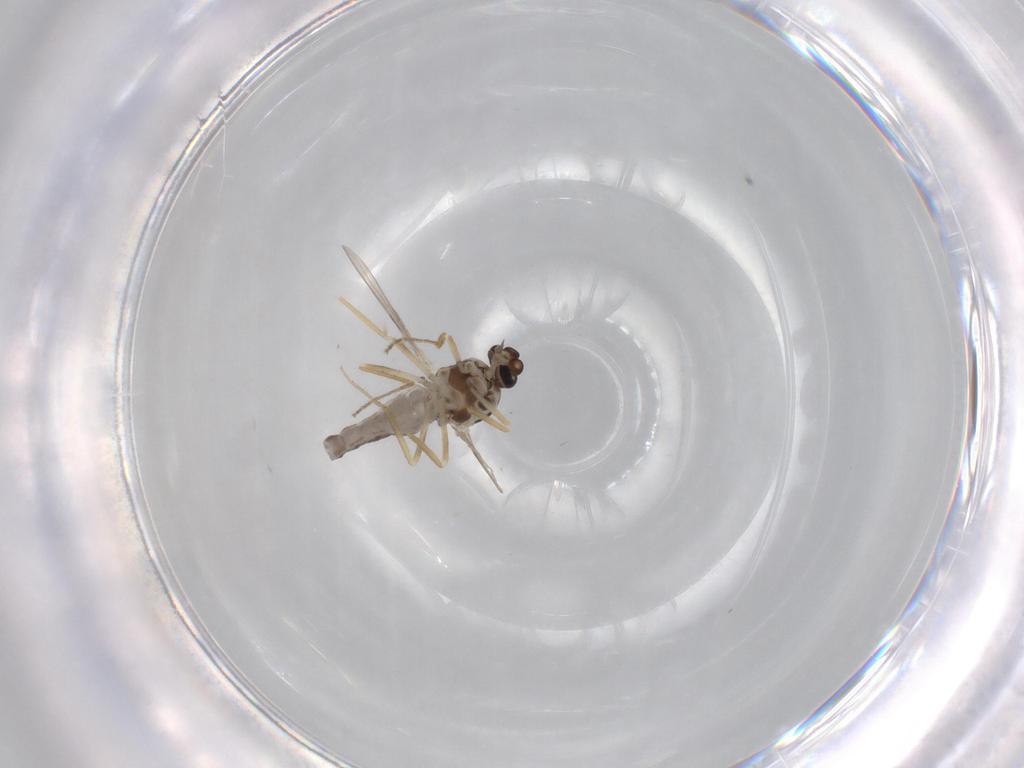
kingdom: Animalia
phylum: Arthropoda
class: Insecta
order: Diptera
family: Ceratopogonidae
